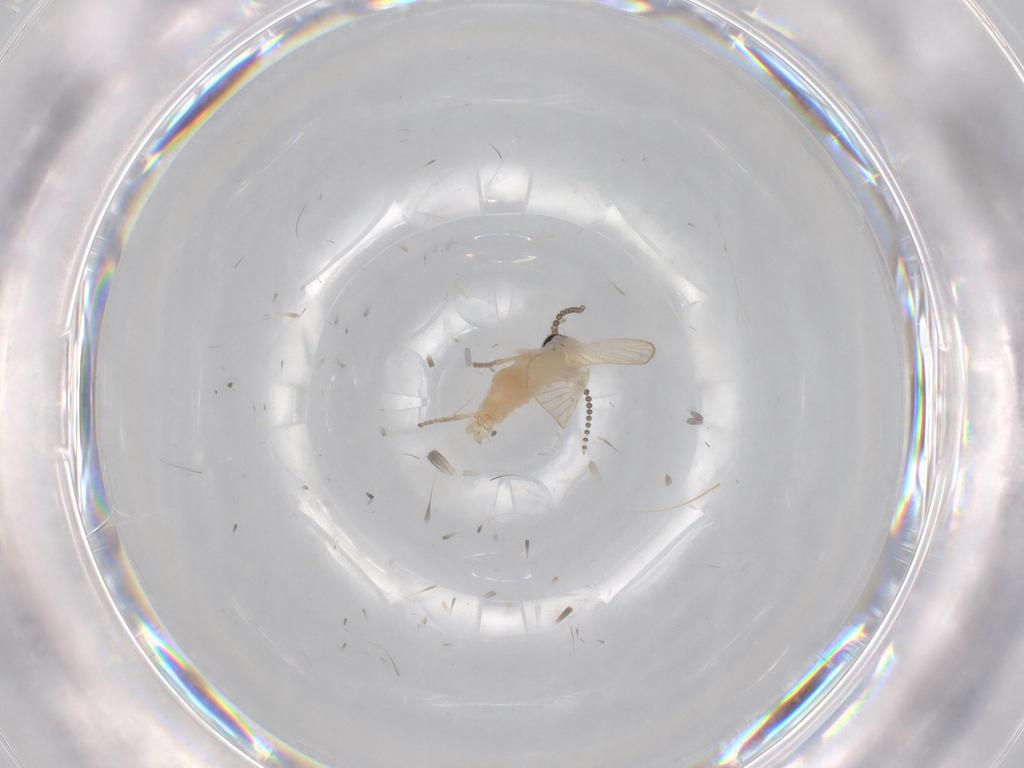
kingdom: Animalia
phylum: Arthropoda
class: Insecta
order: Diptera
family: Psychodidae
